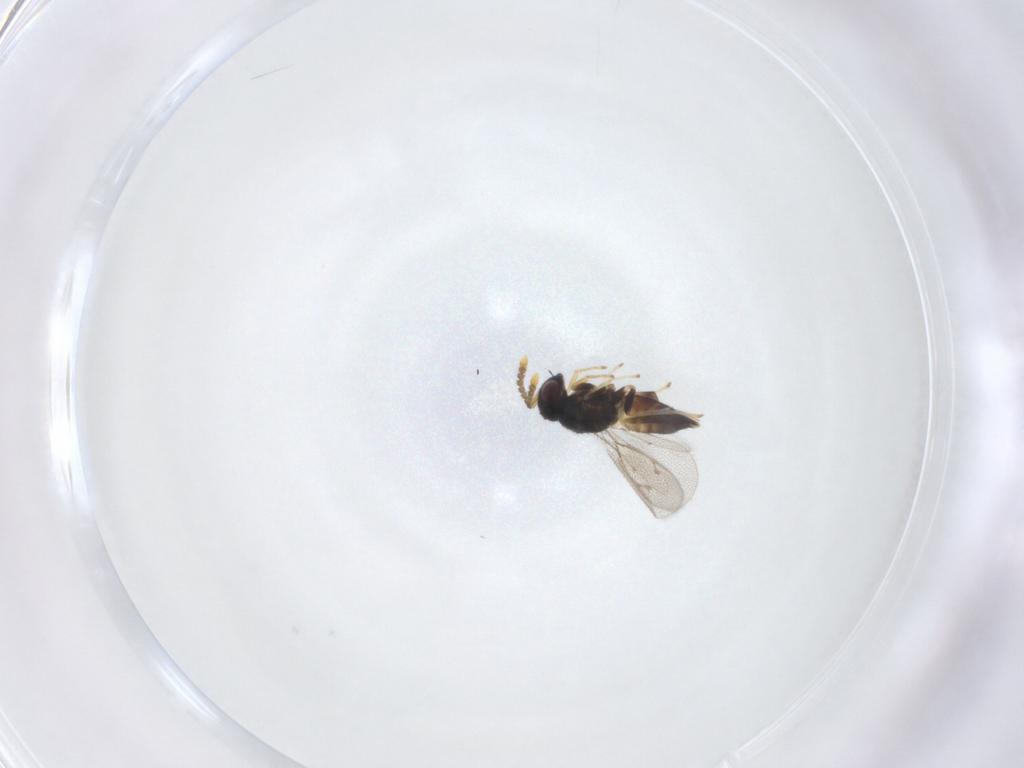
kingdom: Animalia
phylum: Arthropoda
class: Insecta
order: Hymenoptera
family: Pirenidae
